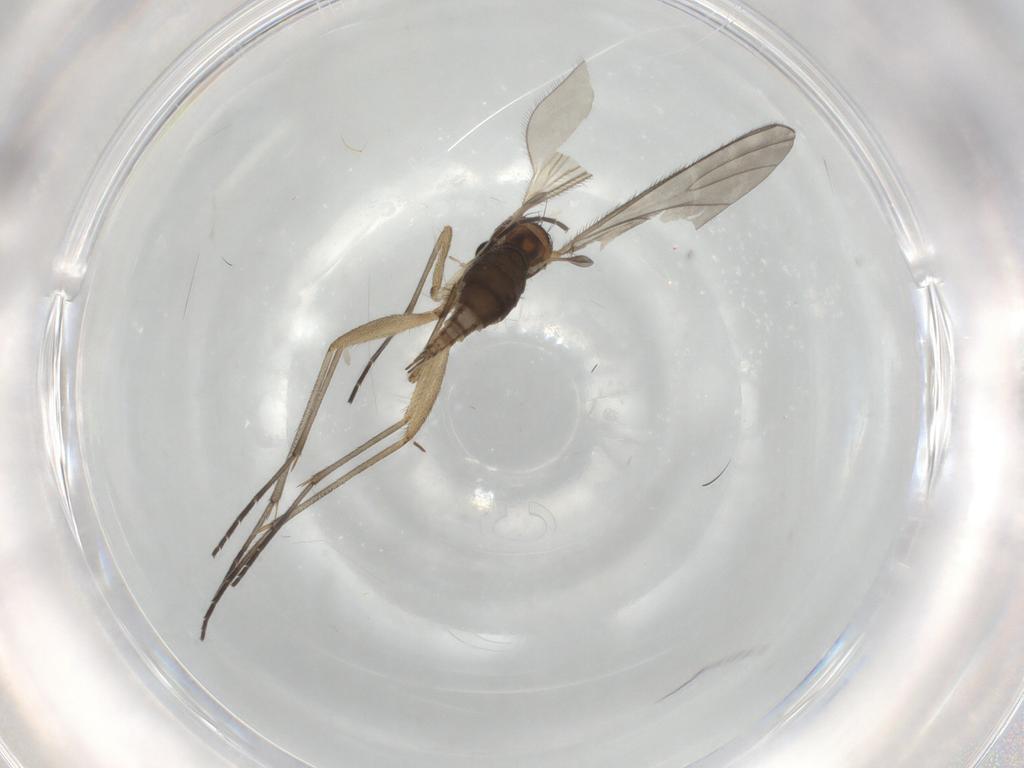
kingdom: Animalia
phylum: Arthropoda
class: Insecta
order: Diptera
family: Sciaridae
